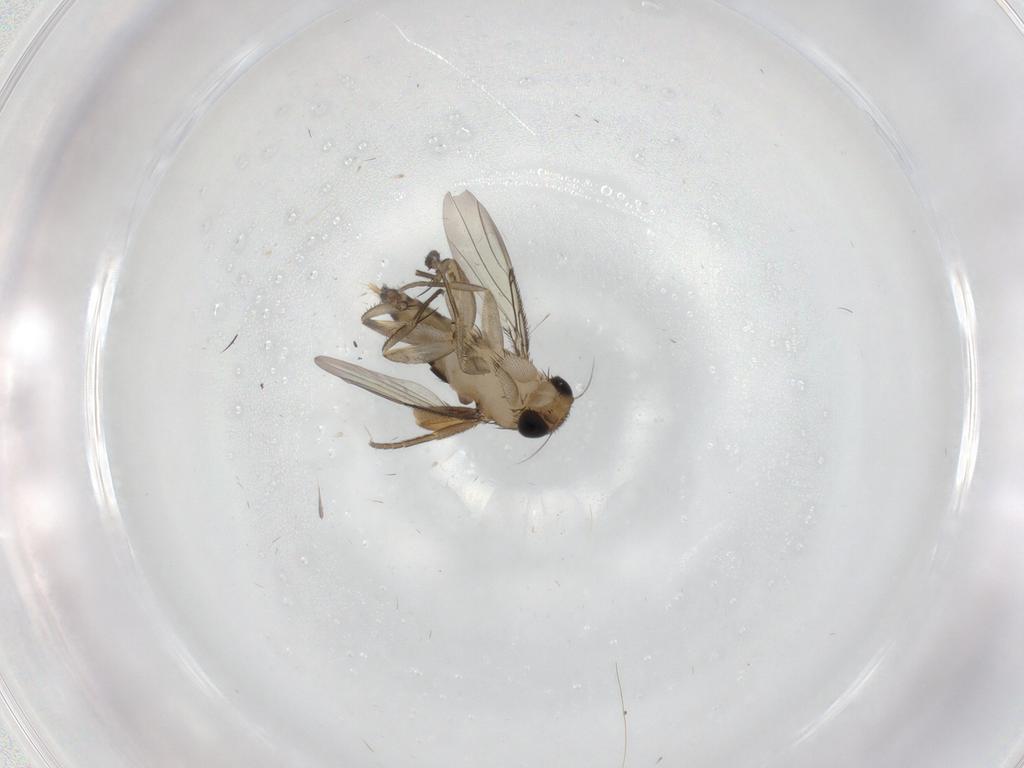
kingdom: Animalia
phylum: Arthropoda
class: Insecta
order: Diptera
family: Phoridae
